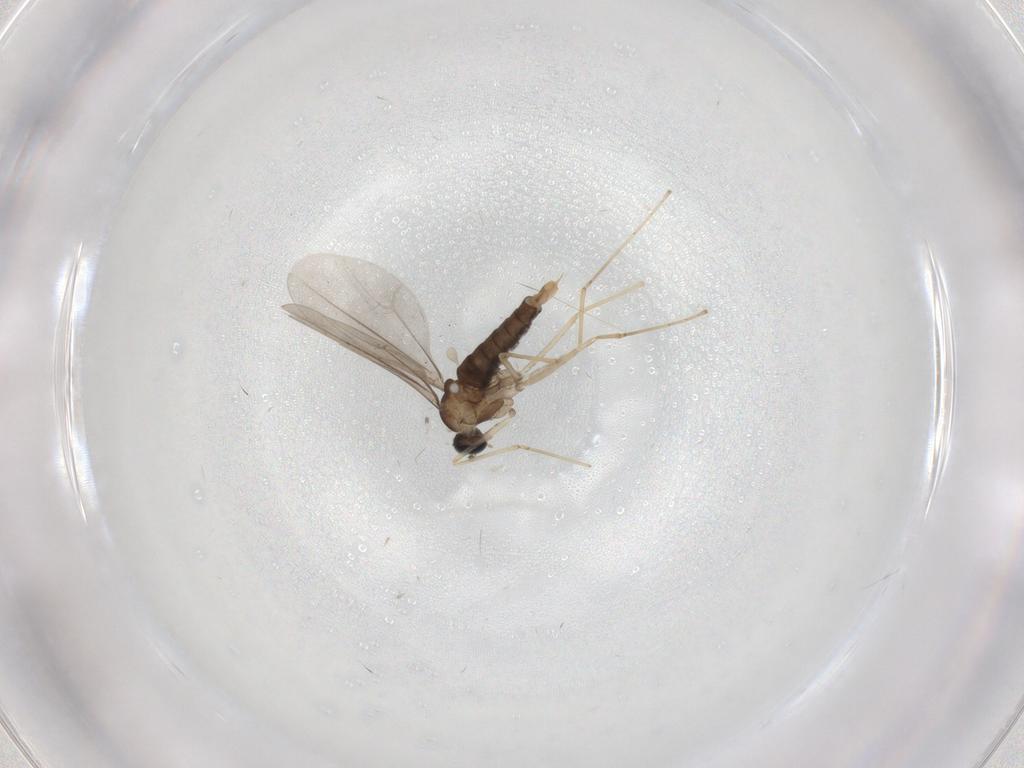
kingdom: Animalia
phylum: Arthropoda
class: Insecta
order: Diptera
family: Cecidomyiidae
